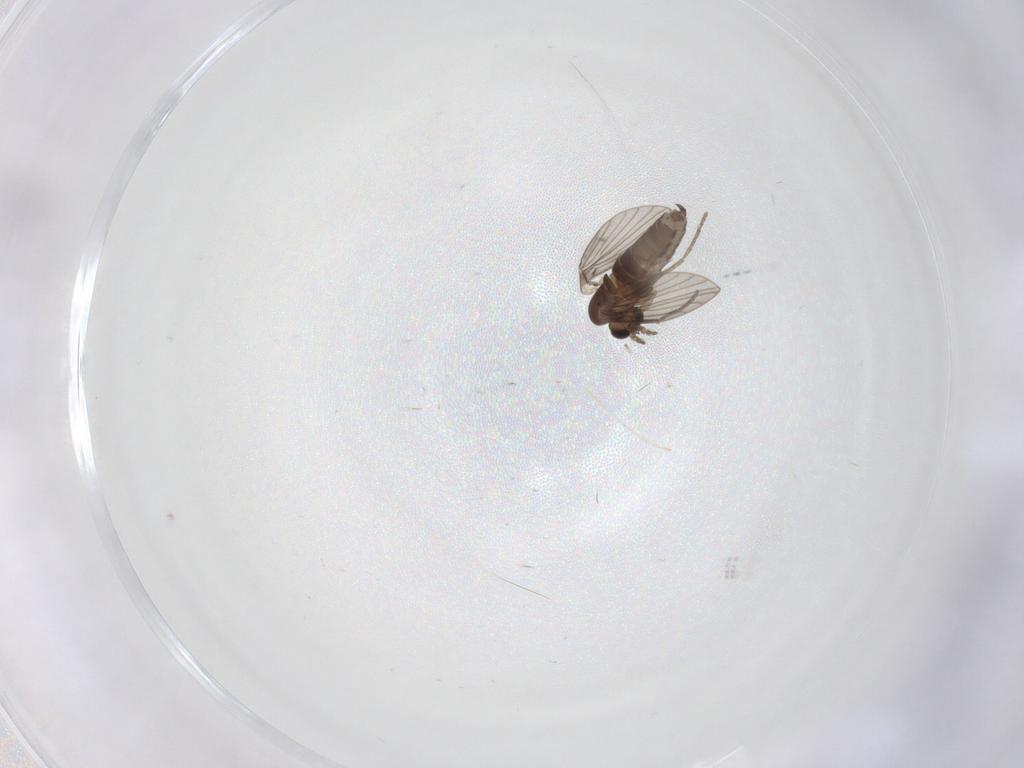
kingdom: Animalia
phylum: Arthropoda
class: Insecta
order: Diptera
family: Psychodidae
